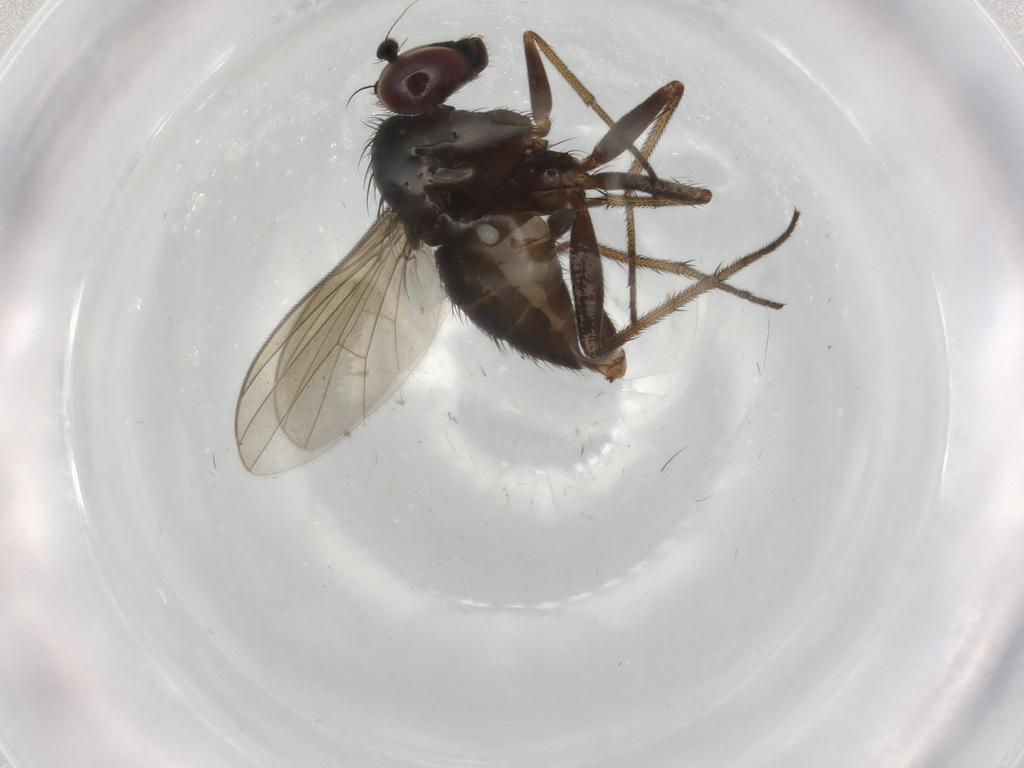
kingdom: Animalia
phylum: Arthropoda
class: Insecta
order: Diptera
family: Dolichopodidae
